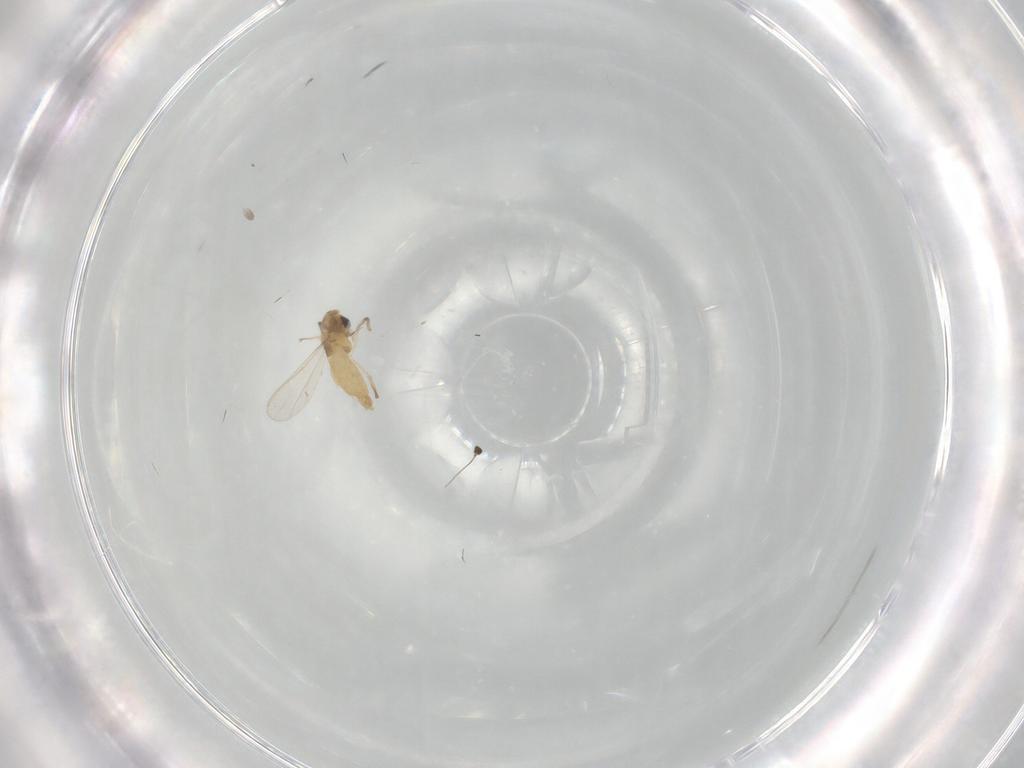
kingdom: Animalia
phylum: Arthropoda
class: Insecta
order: Diptera
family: Chironomidae
